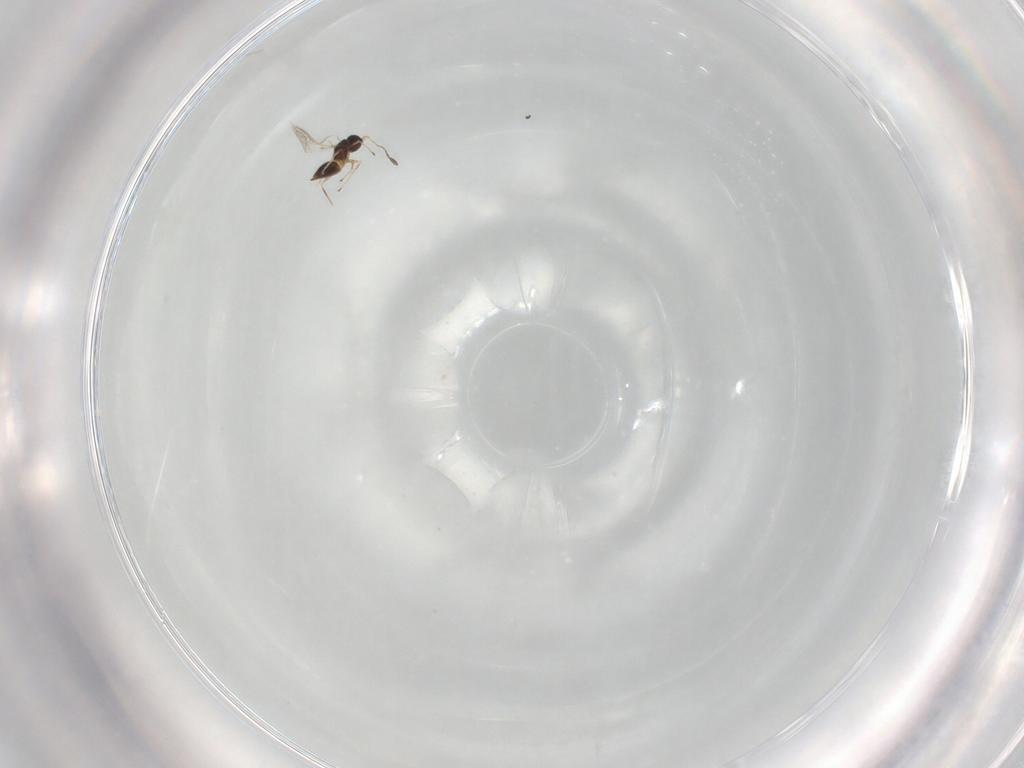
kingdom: Animalia
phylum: Arthropoda
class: Insecta
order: Hymenoptera
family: Mymaridae
